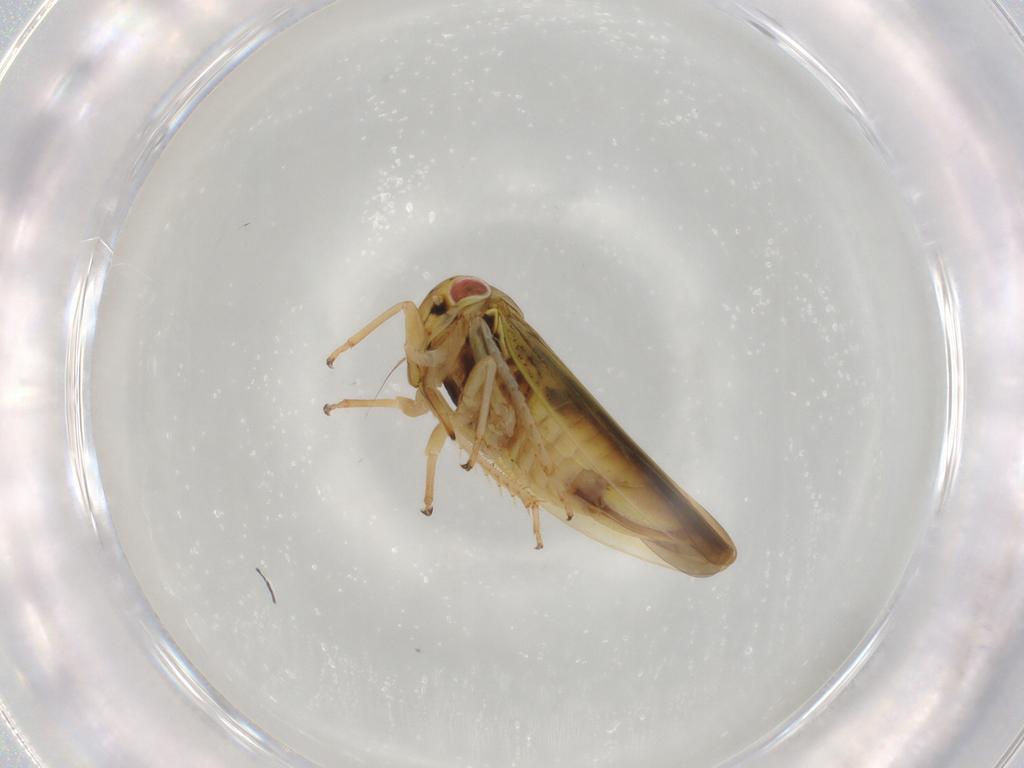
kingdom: Animalia
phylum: Arthropoda
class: Insecta
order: Hemiptera
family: Cicadellidae
